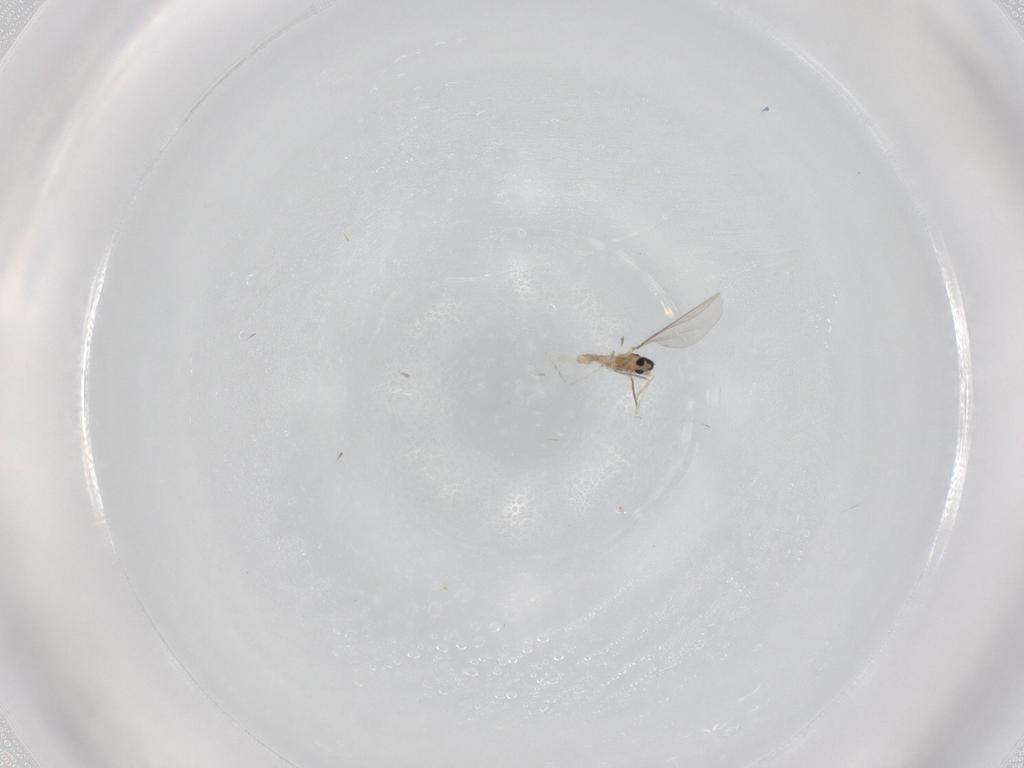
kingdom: Animalia
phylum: Arthropoda
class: Insecta
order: Diptera
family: Cecidomyiidae
